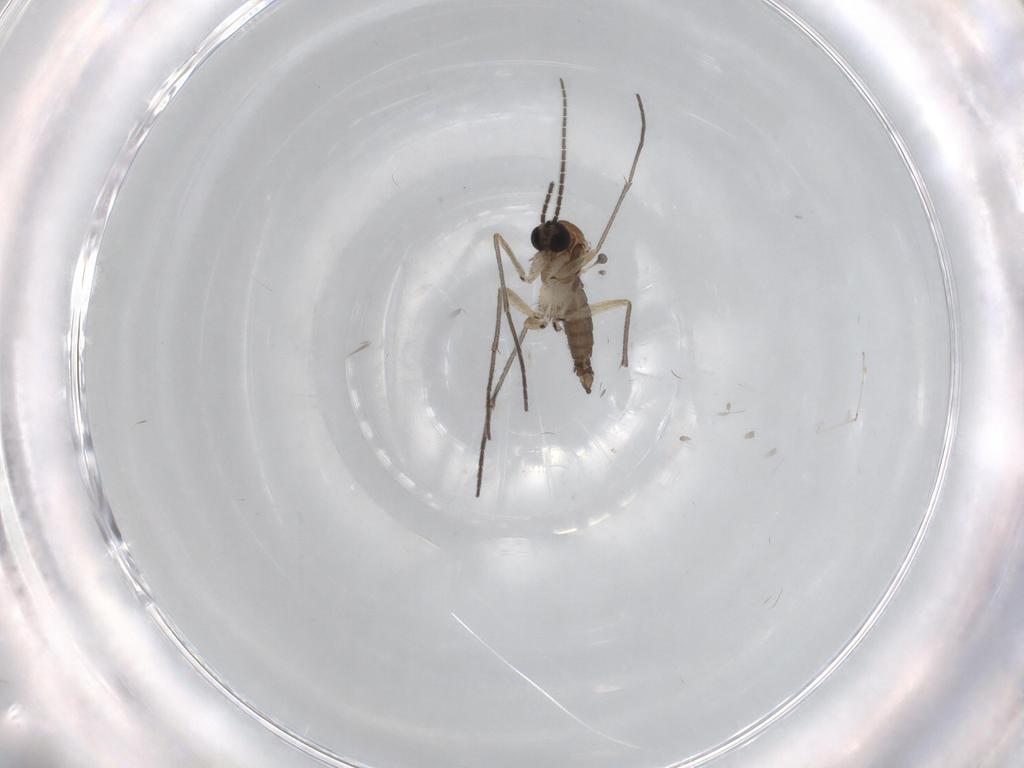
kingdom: Animalia
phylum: Arthropoda
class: Insecta
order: Diptera
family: Sciaridae
